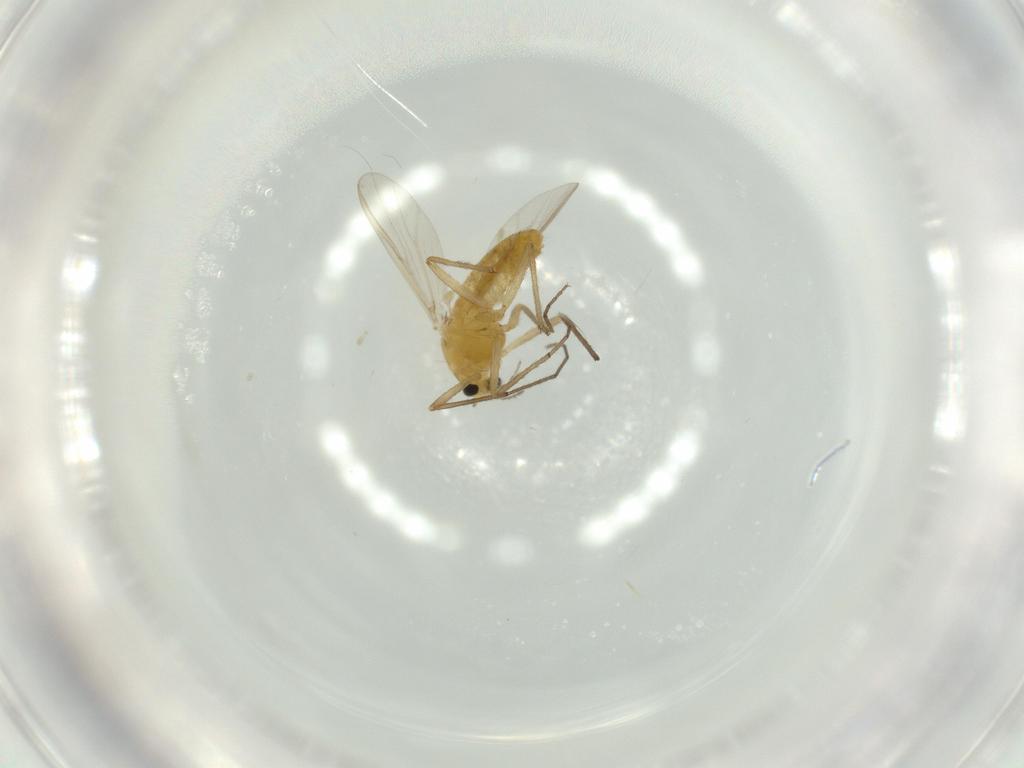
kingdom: Animalia
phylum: Arthropoda
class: Insecta
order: Diptera
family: Chironomidae
